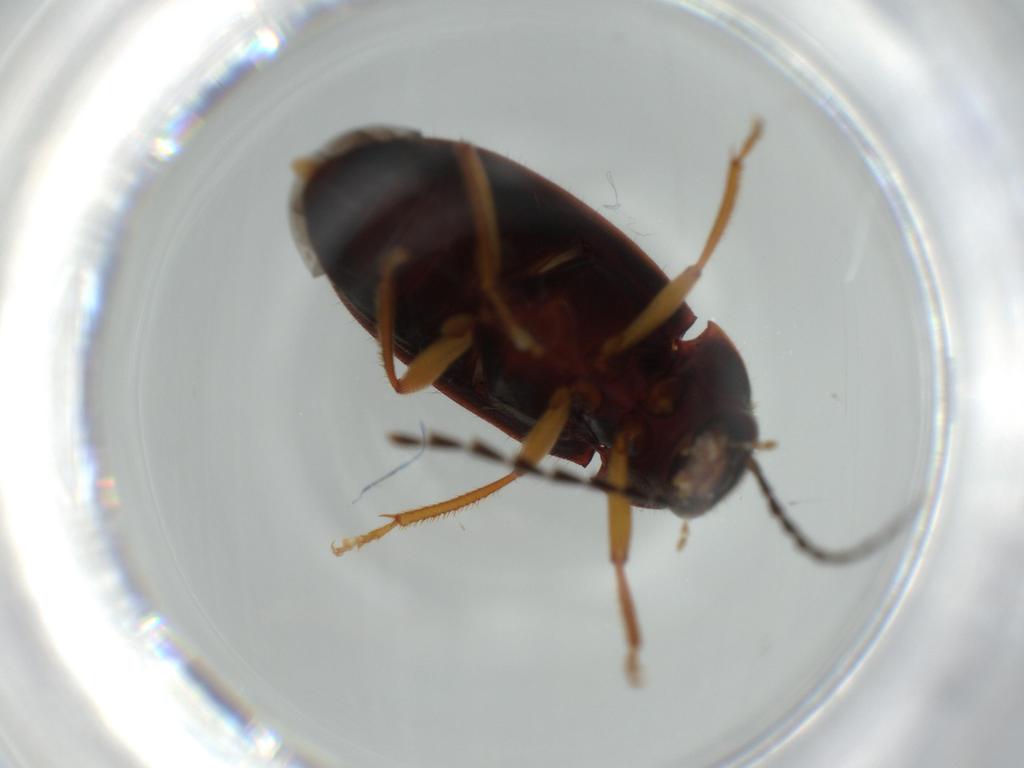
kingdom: Animalia
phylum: Arthropoda
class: Insecta
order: Coleoptera
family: Ptilodactylidae
